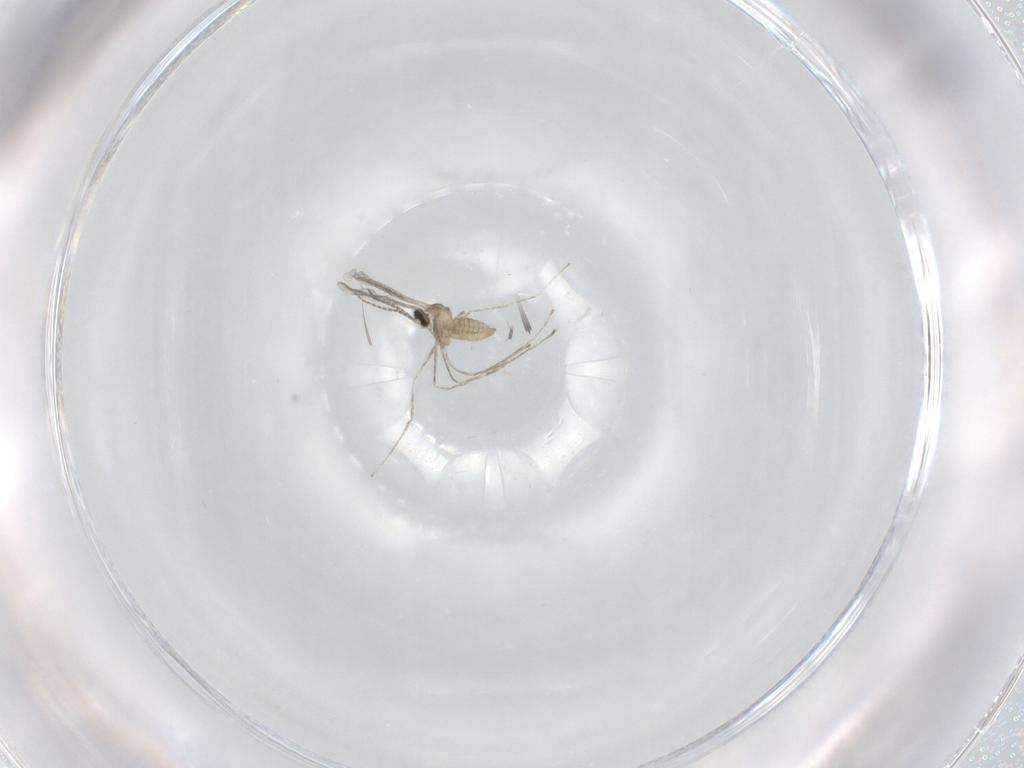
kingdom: Animalia
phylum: Arthropoda
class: Insecta
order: Diptera
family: Cecidomyiidae
